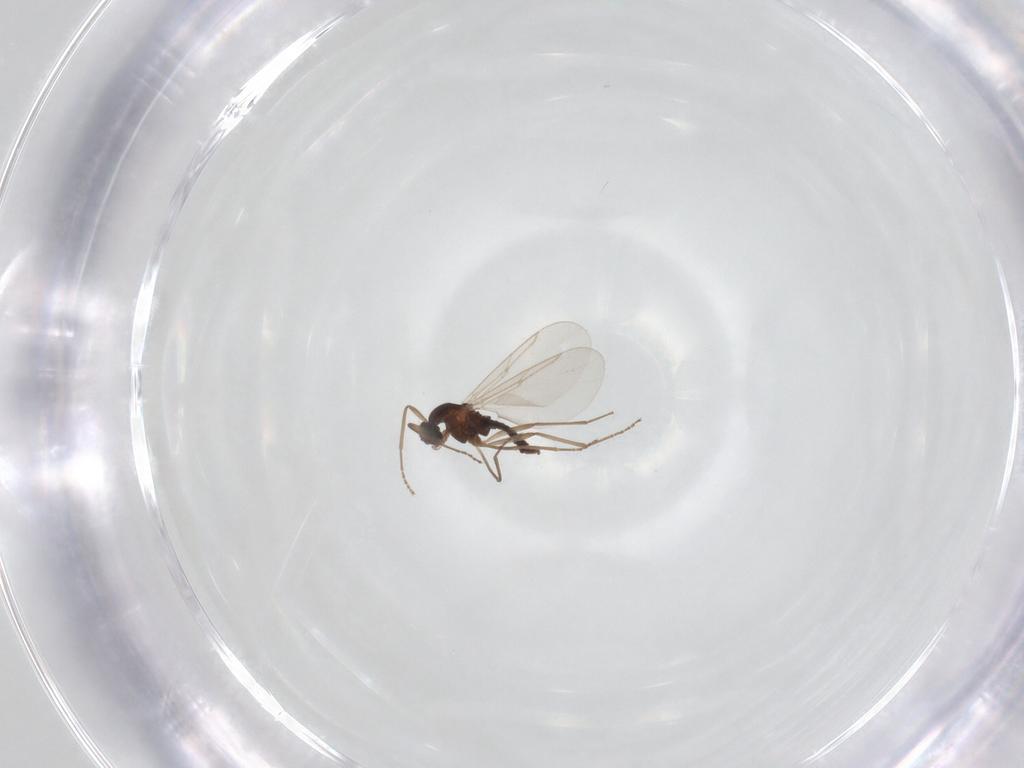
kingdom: Animalia
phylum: Arthropoda
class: Insecta
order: Diptera
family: Cecidomyiidae
